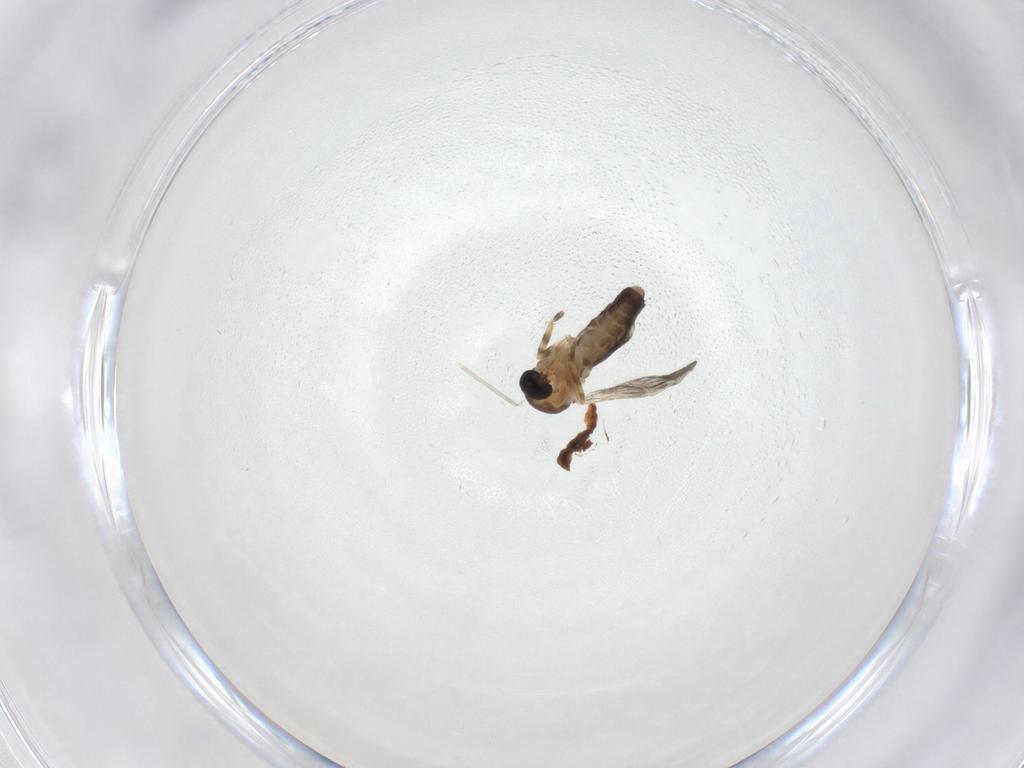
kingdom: Animalia
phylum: Arthropoda
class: Insecta
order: Diptera
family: Ceratopogonidae
